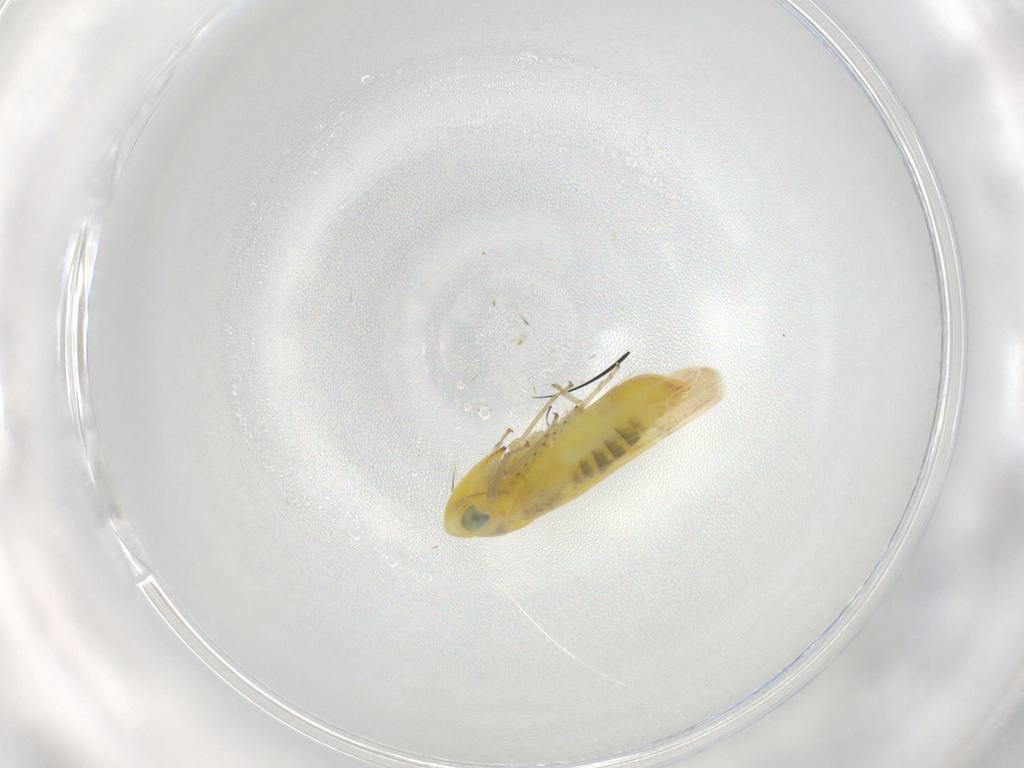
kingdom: Animalia
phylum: Arthropoda
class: Insecta
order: Hemiptera
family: Cicadellidae
